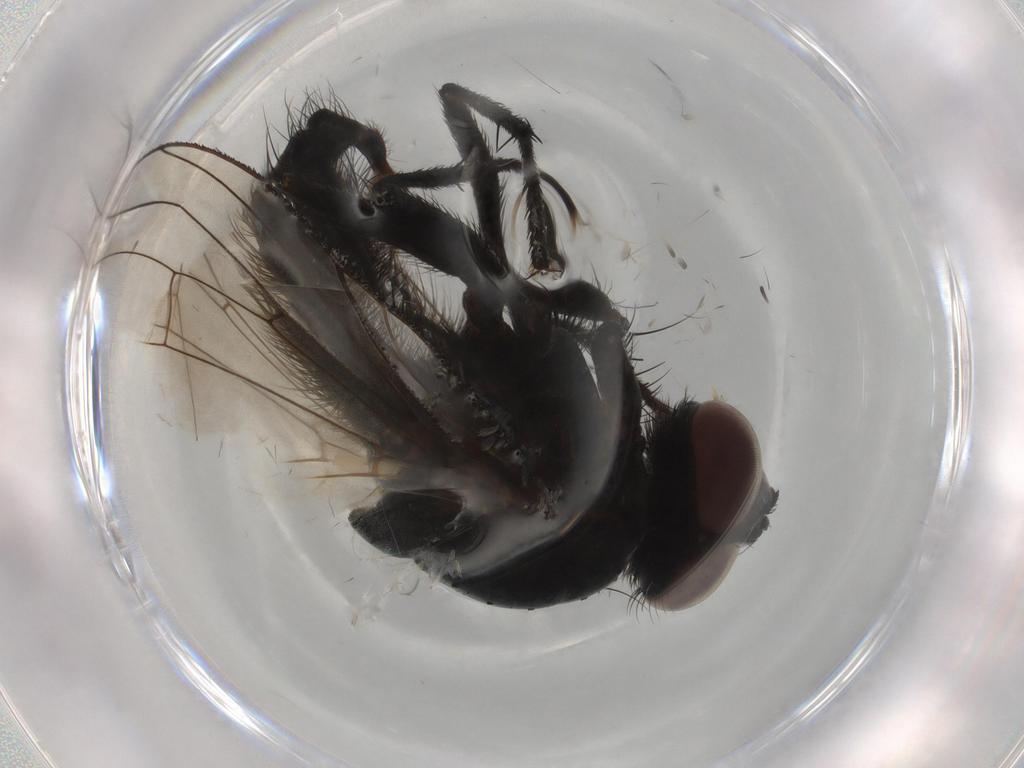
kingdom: Animalia
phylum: Arthropoda
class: Insecta
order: Diptera
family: Anthomyiidae
